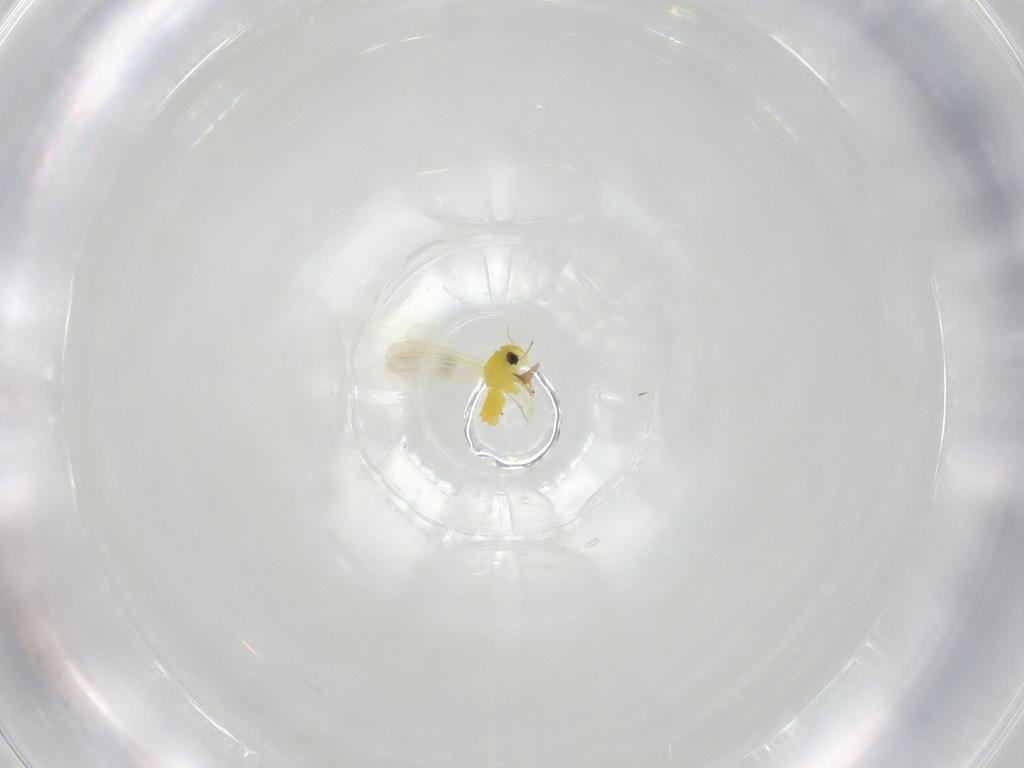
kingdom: Animalia
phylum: Arthropoda
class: Insecta
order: Hemiptera
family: Aleyrodidae
